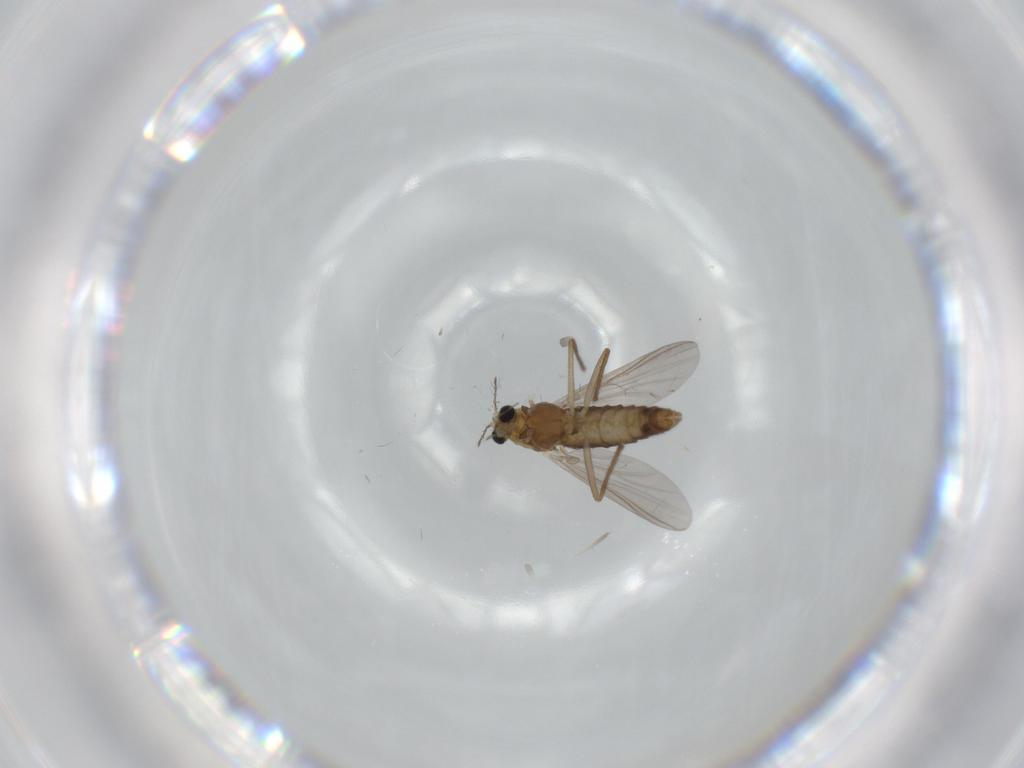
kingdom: Animalia
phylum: Arthropoda
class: Insecta
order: Diptera
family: Chironomidae
